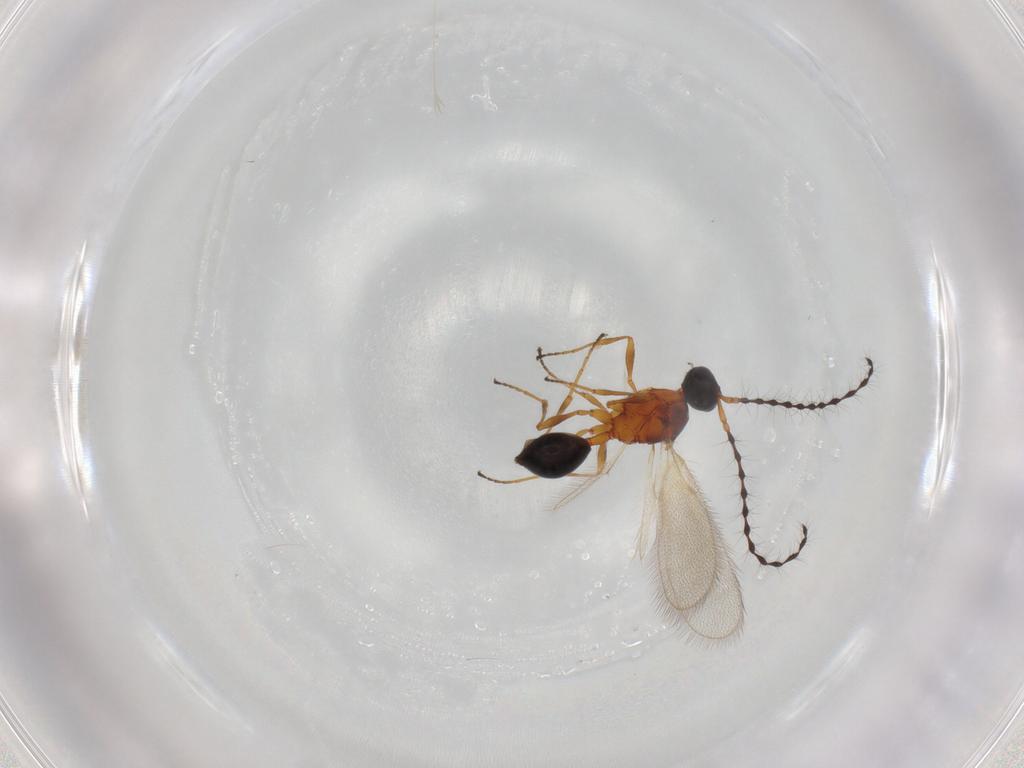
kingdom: Animalia
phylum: Arthropoda
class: Insecta
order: Hymenoptera
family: Diapriidae
